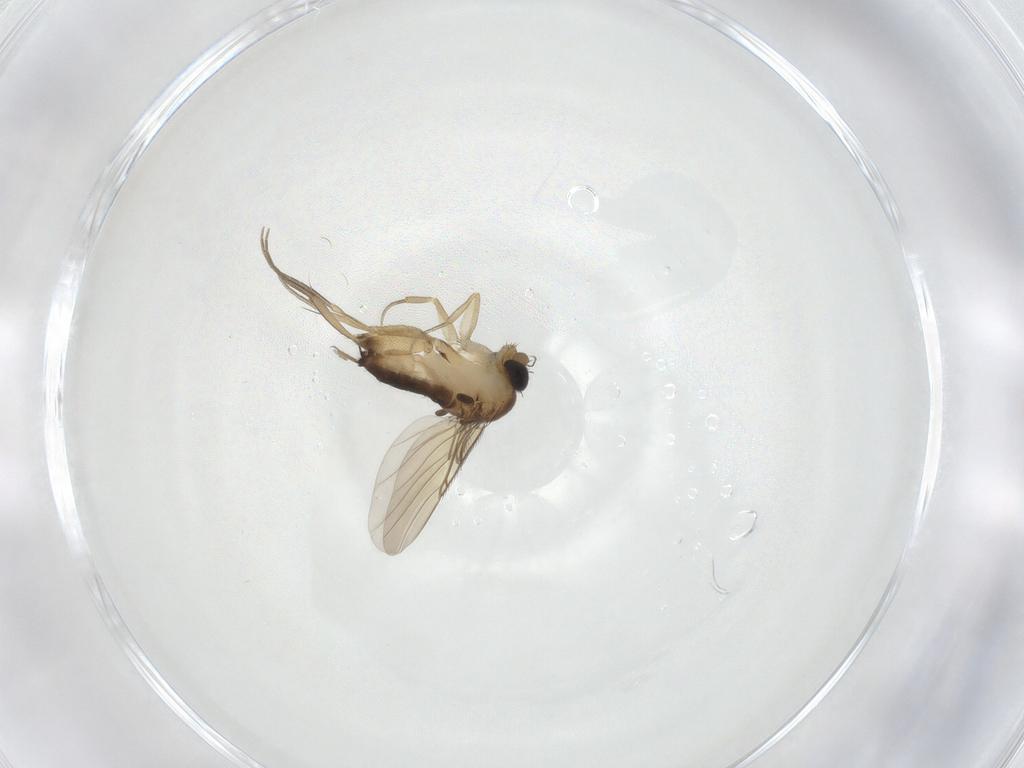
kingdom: Animalia
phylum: Arthropoda
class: Insecta
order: Diptera
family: Phoridae
